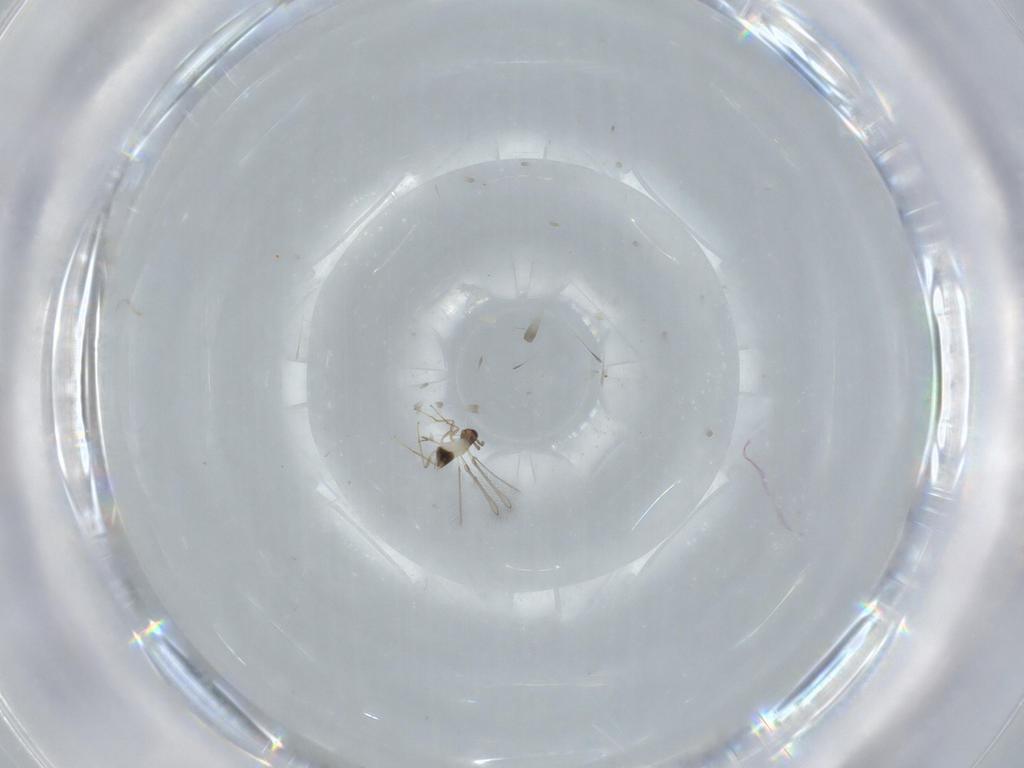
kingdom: Animalia
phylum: Arthropoda
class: Insecta
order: Hymenoptera
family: Mymaridae
